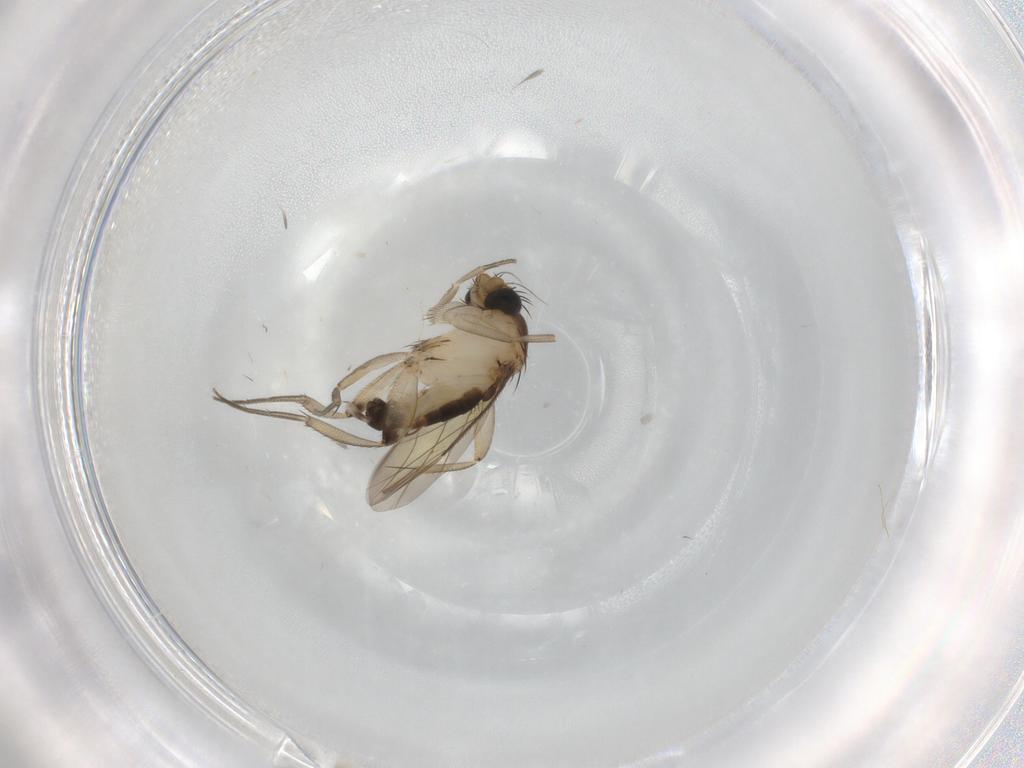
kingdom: Animalia
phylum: Arthropoda
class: Insecta
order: Diptera
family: Phoridae
